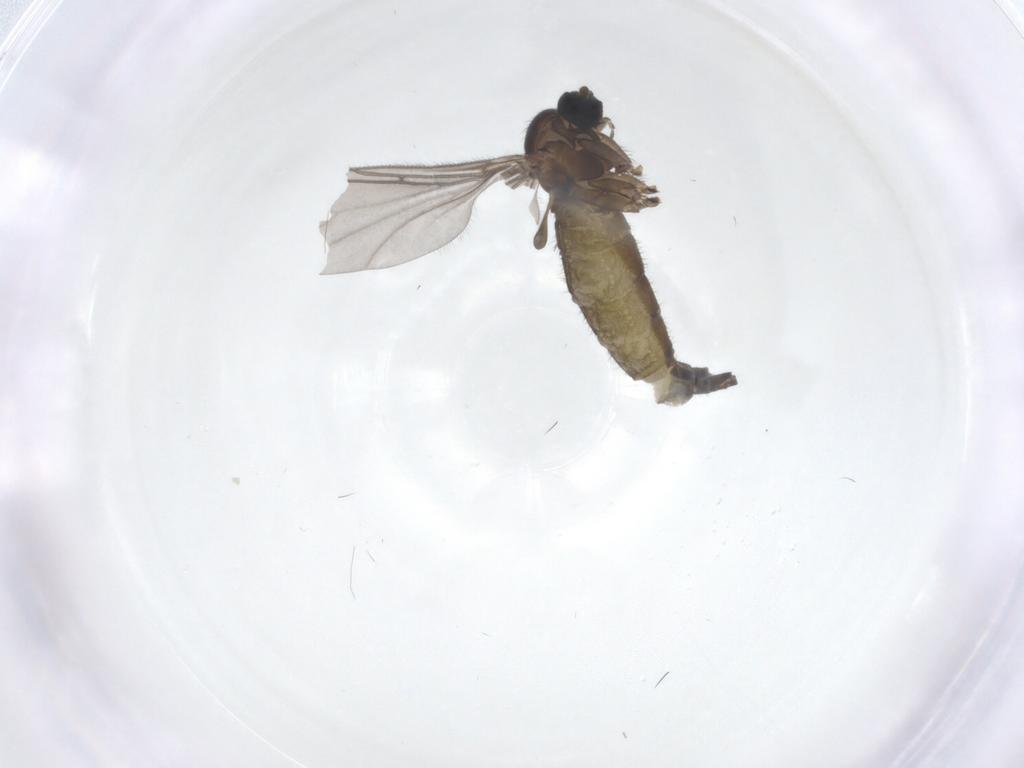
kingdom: Animalia
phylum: Arthropoda
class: Insecta
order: Diptera
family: Sciaridae
